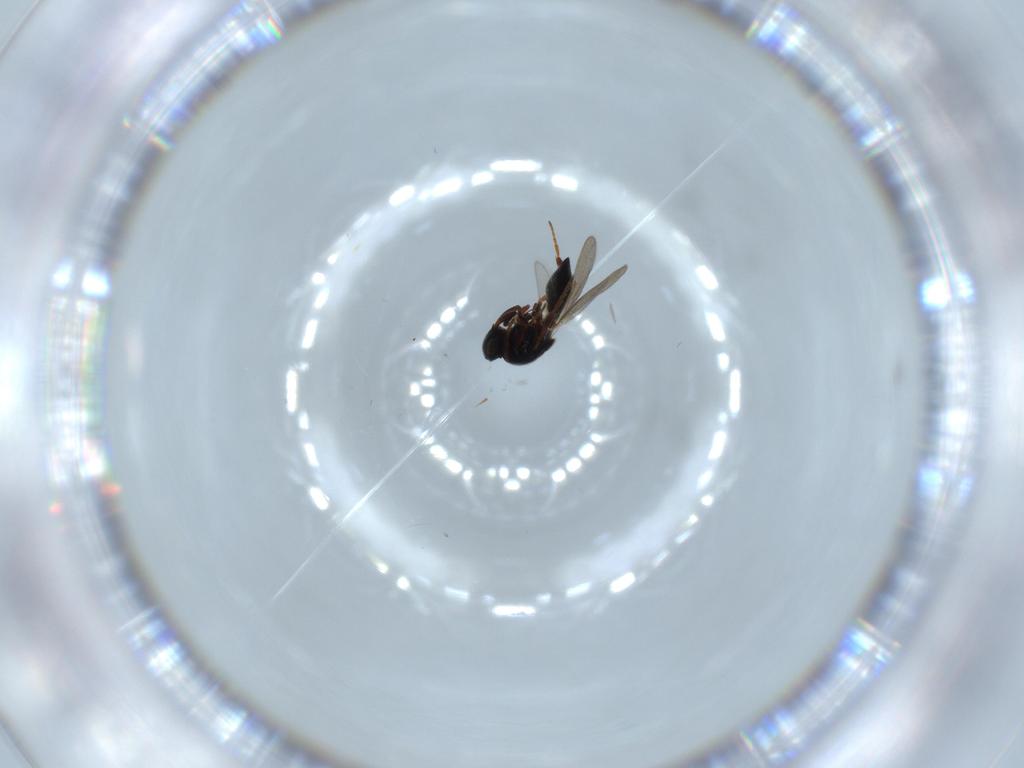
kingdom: Animalia
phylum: Arthropoda
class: Insecta
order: Hymenoptera
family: Platygastridae
